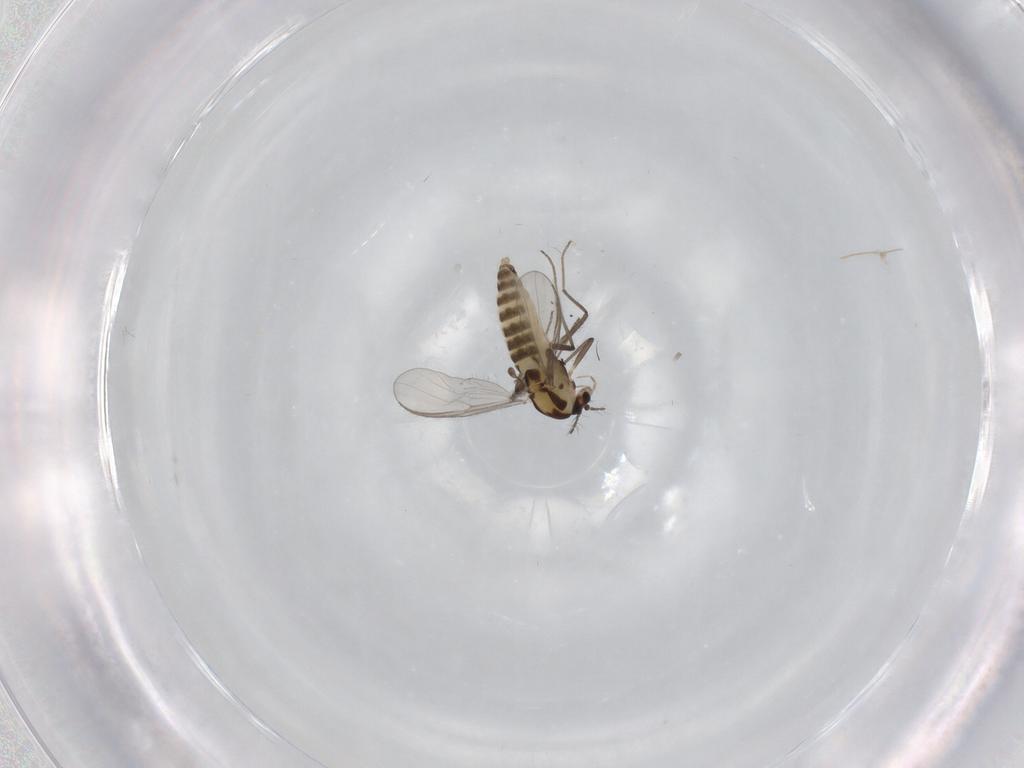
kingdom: Animalia
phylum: Arthropoda
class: Insecta
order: Diptera
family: Chironomidae
